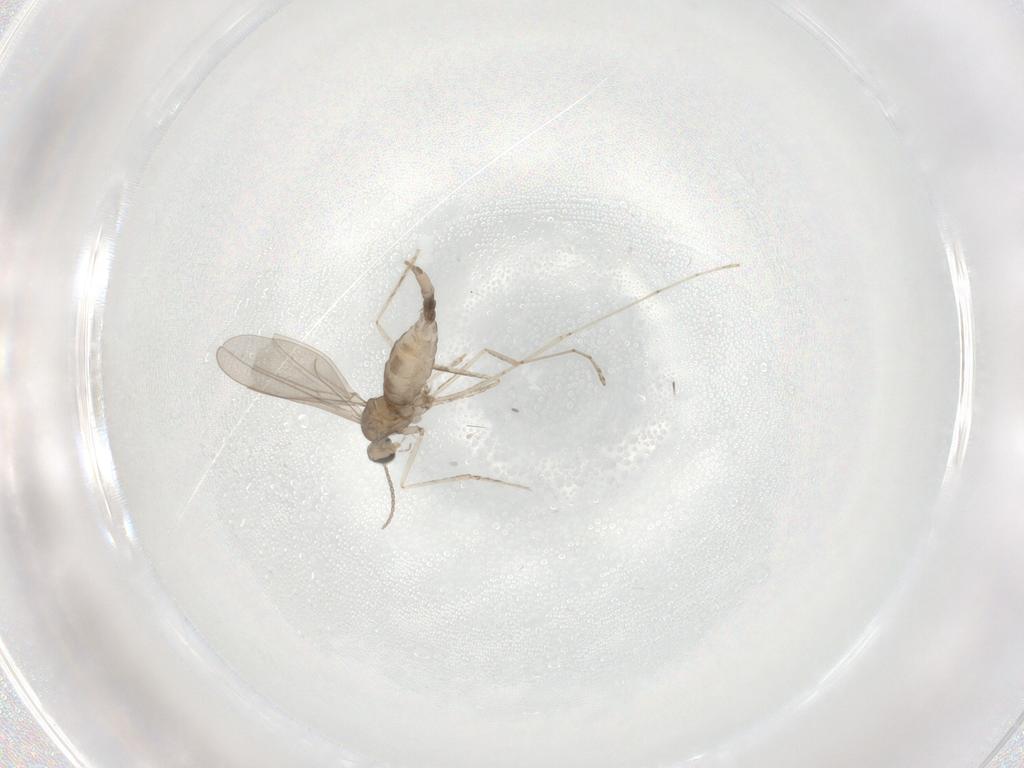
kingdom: Animalia
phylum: Arthropoda
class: Insecta
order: Diptera
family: Cecidomyiidae
